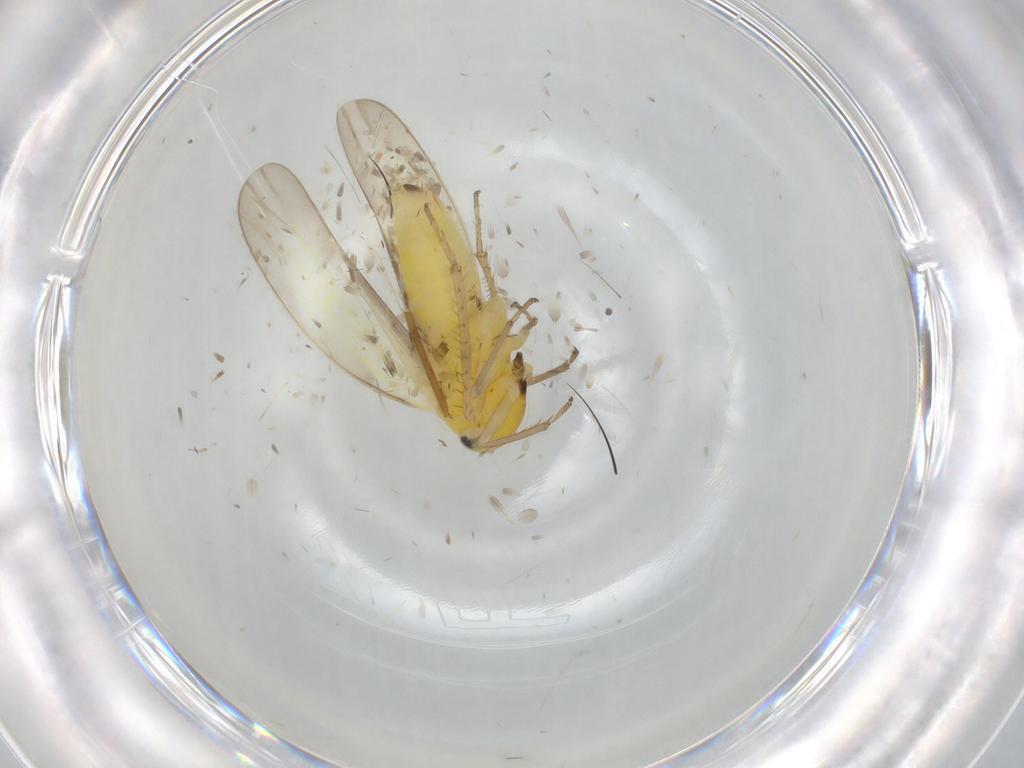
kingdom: Animalia
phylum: Arthropoda
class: Insecta
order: Hemiptera
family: Cicadellidae
